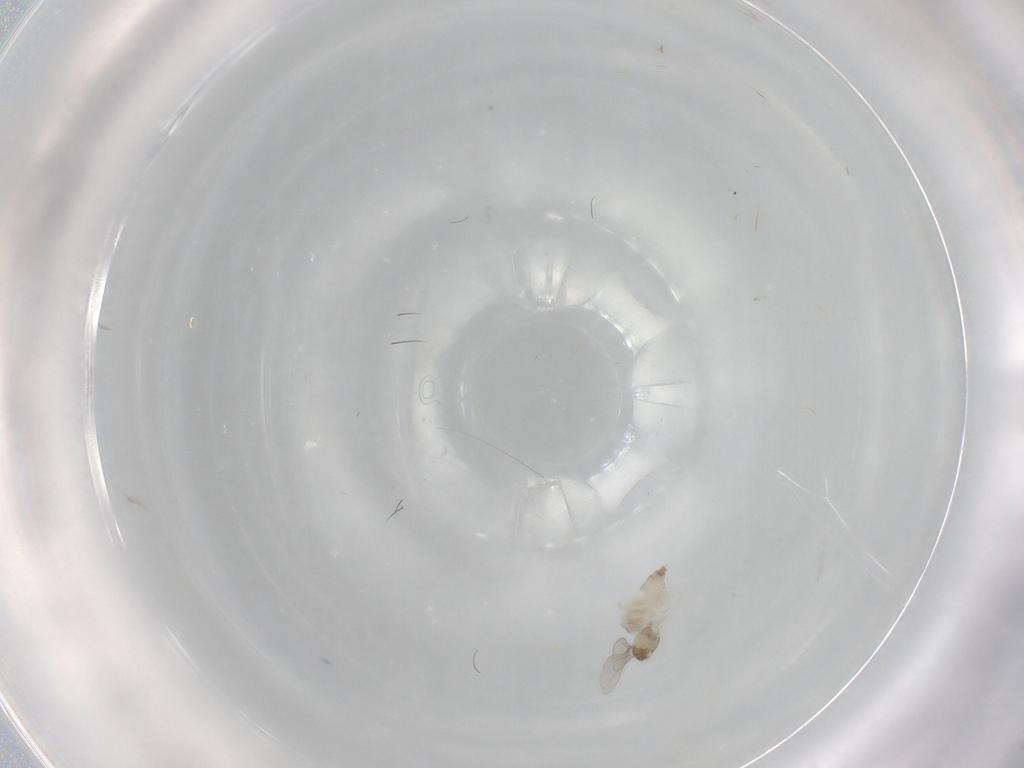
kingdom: Animalia
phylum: Arthropoda
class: Insecta
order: Diptera
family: Tabanidae
